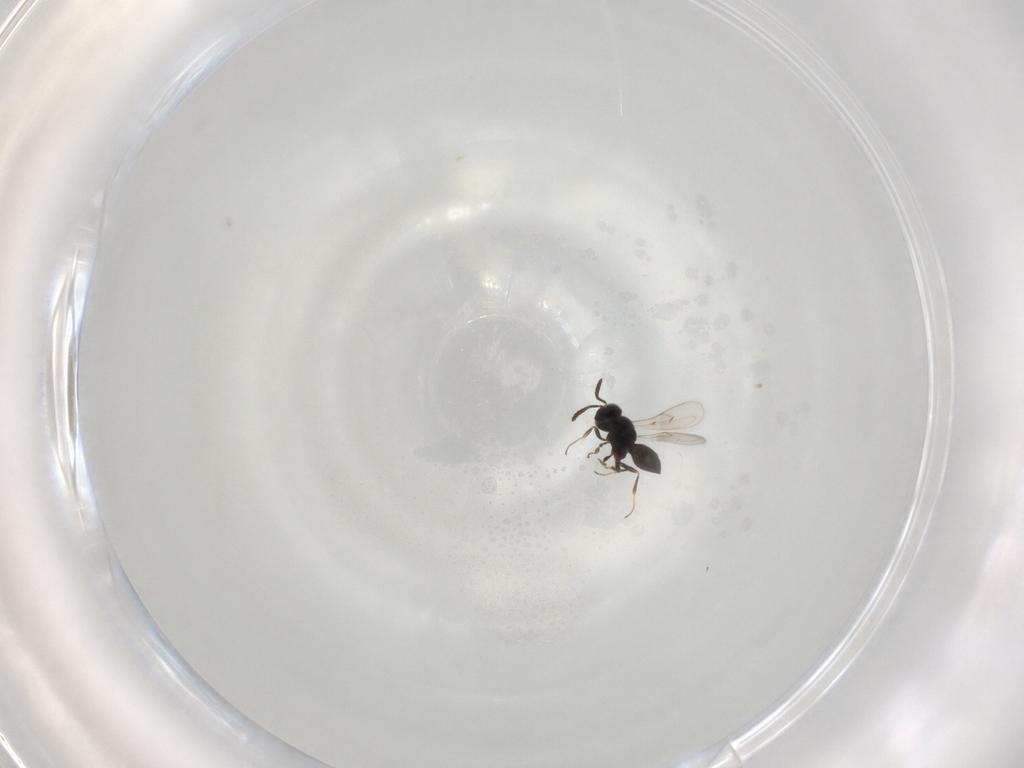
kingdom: Animalia
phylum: Arthropoda
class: Insecta
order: Hymenoptera
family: Scelionidae
